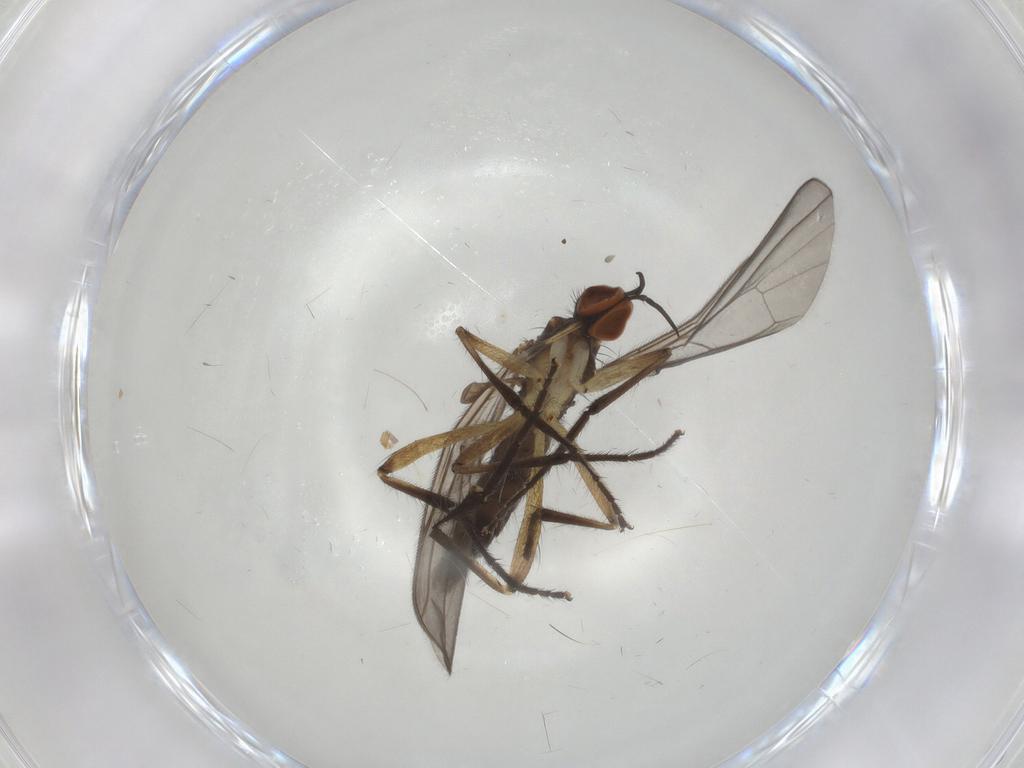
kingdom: Animalia
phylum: Arthropoda
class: Insecta
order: Diptera
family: Empididae
